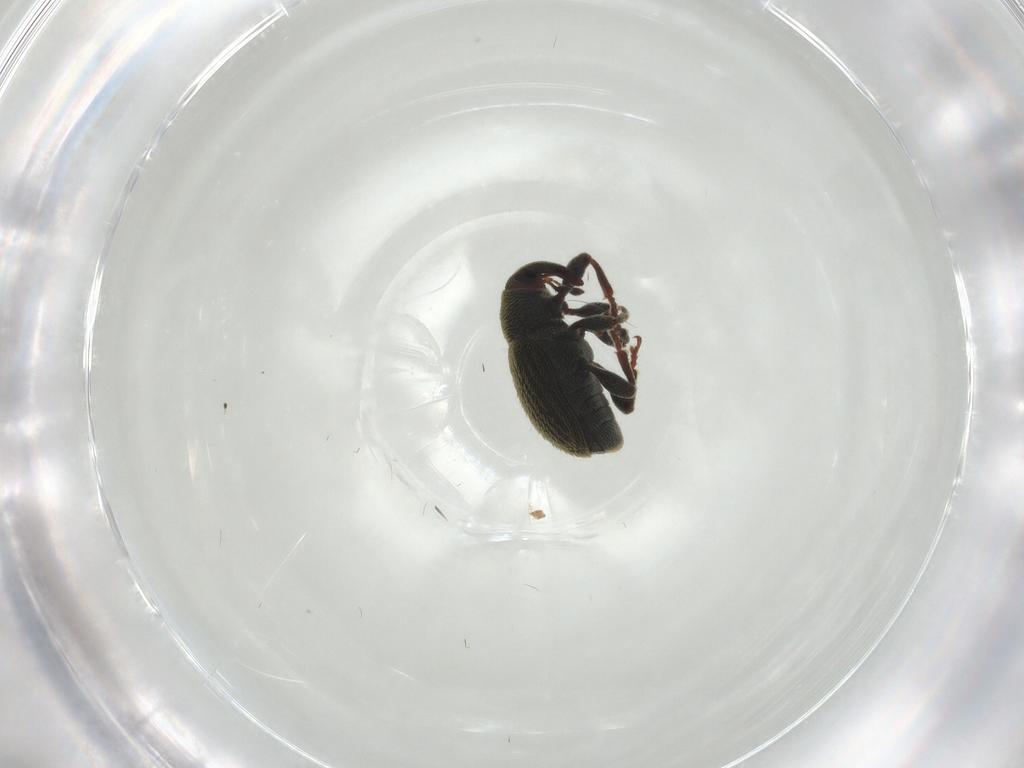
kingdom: Animalia
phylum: Arthropoda
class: Insecta
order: Coleoptera
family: Curculionidae
